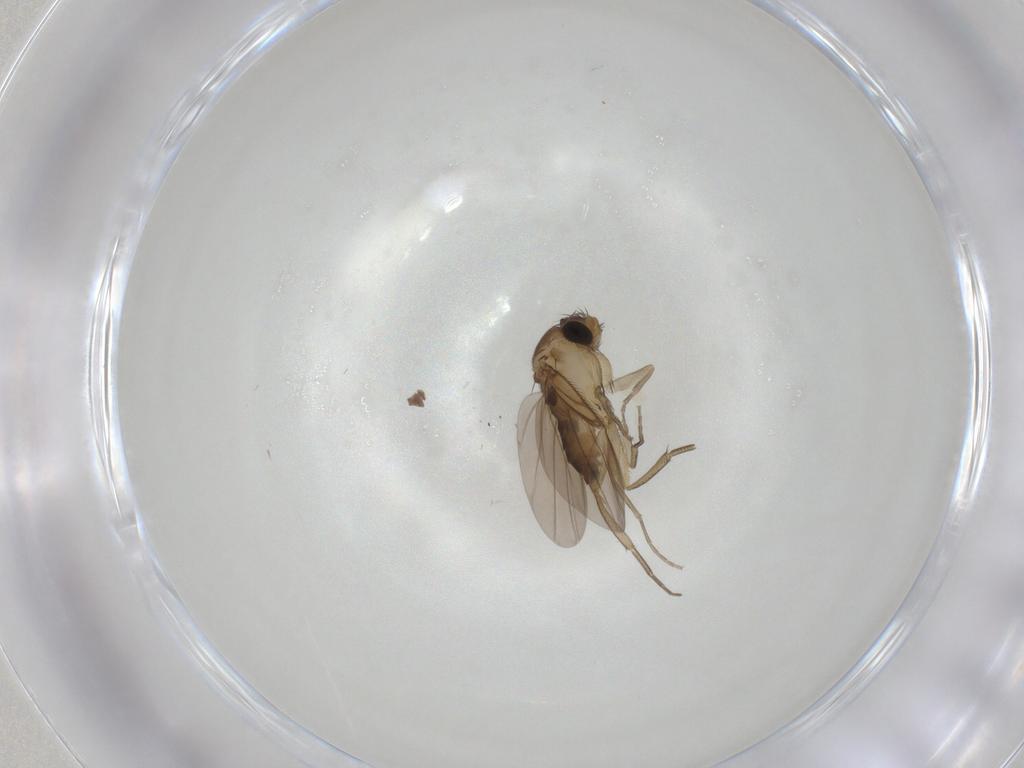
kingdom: Animalia
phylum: Arthropoda
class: Insecta
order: Diptera
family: Phoridae
